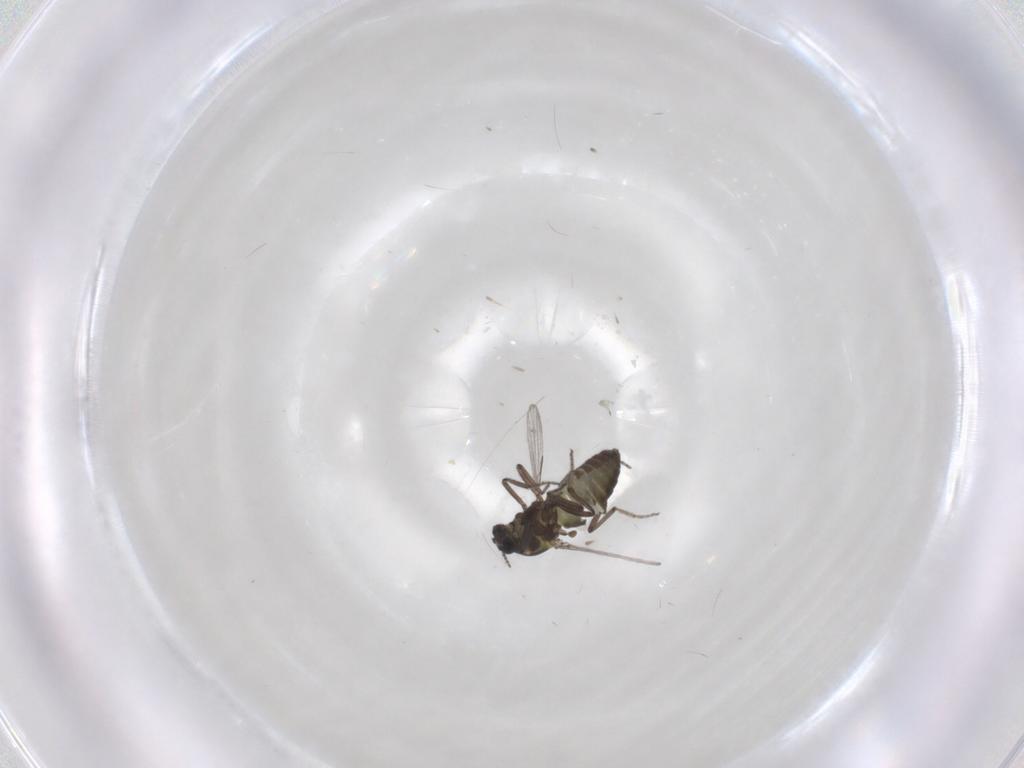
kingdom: Animalia
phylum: Arthropoda
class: Insecta
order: Diptera
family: Ceratopogonidae
